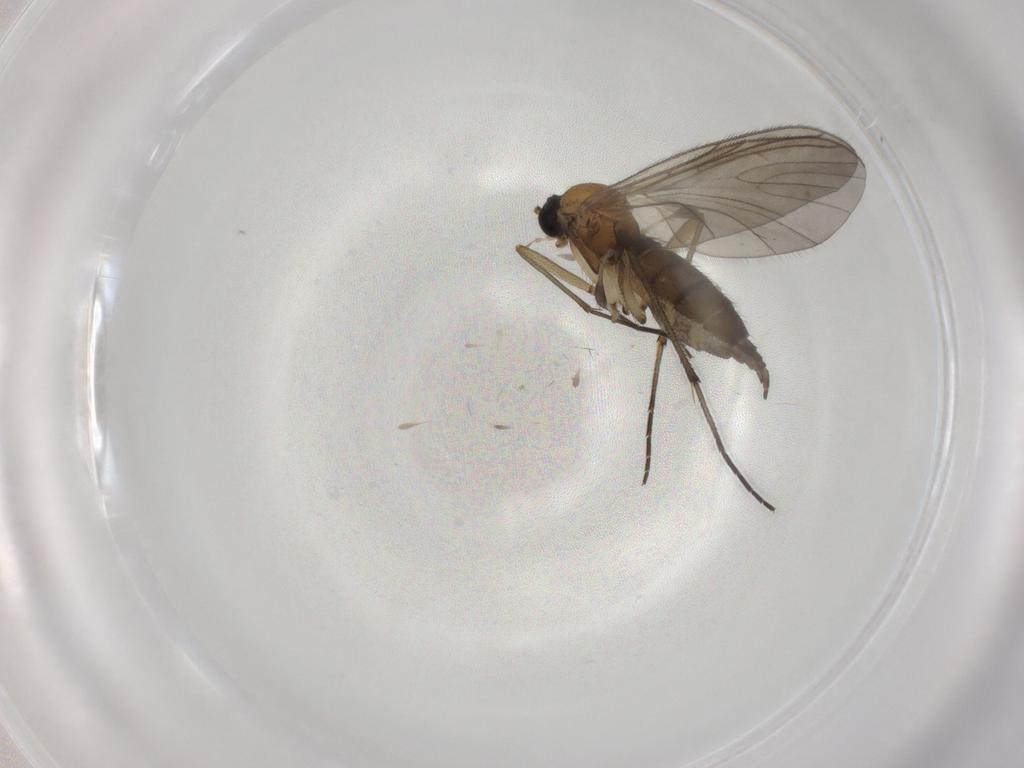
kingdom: Animalia
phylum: Arthropoda
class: Insecta
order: Diptera
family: Sciaridae
